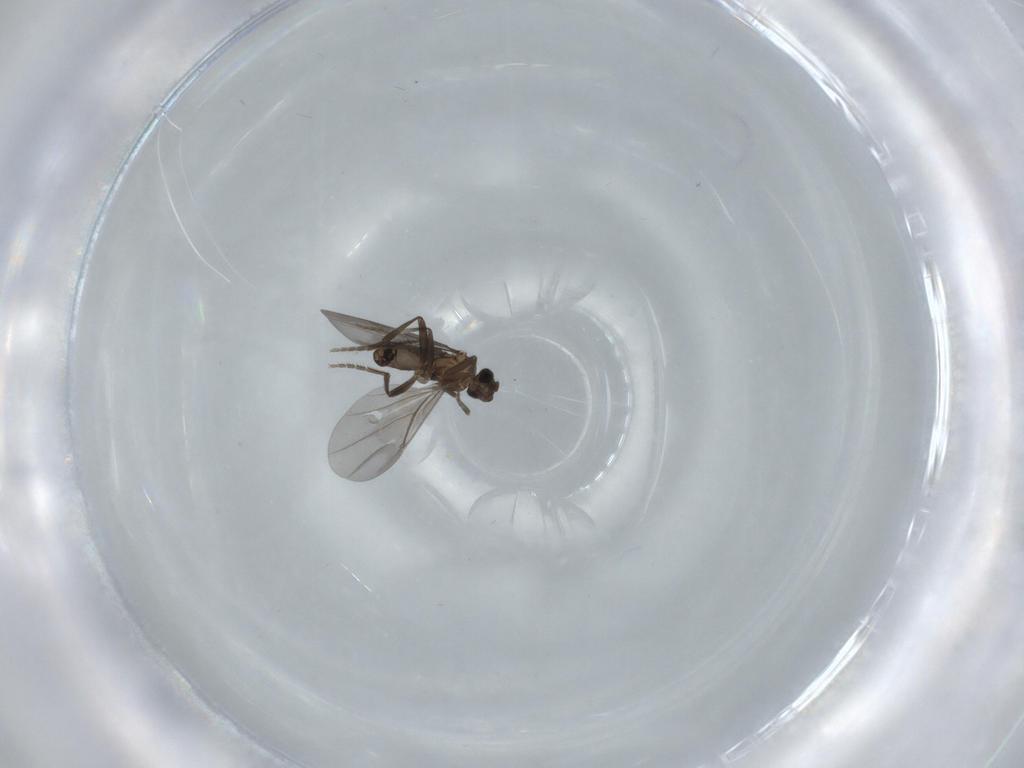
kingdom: Animalia
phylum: Arthropoda
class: Insecta
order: Diptera
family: Phoridae
